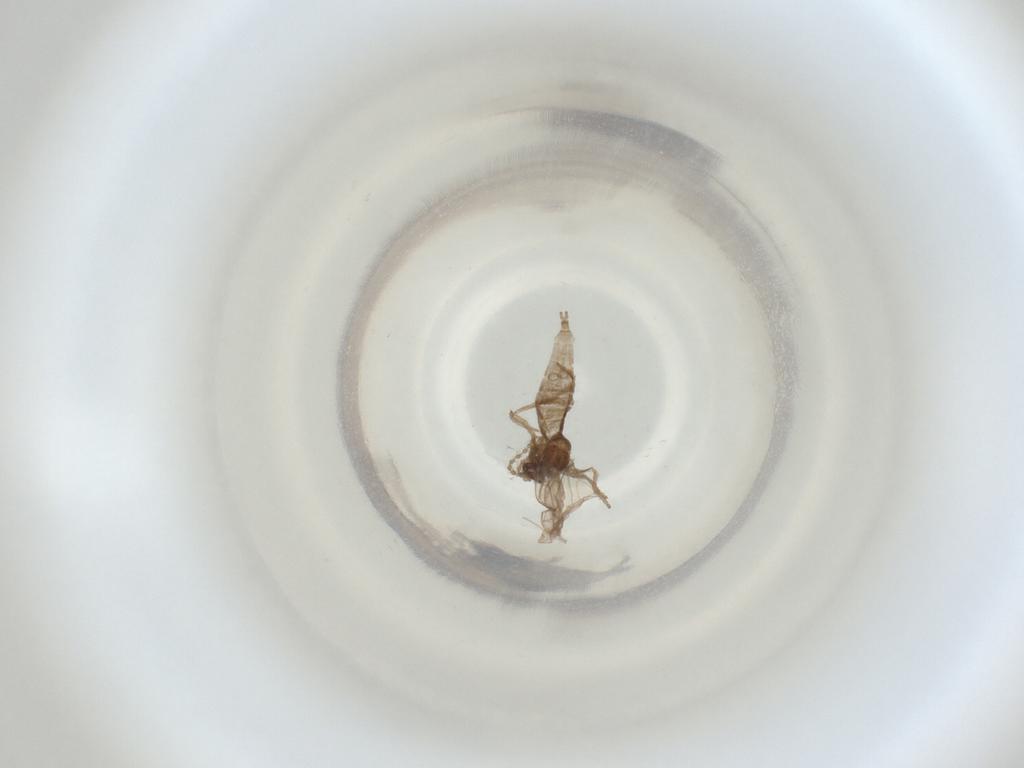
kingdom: Animalia
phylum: Arthropoda
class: Insecta
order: Diptera
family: Cecidomyiidae
